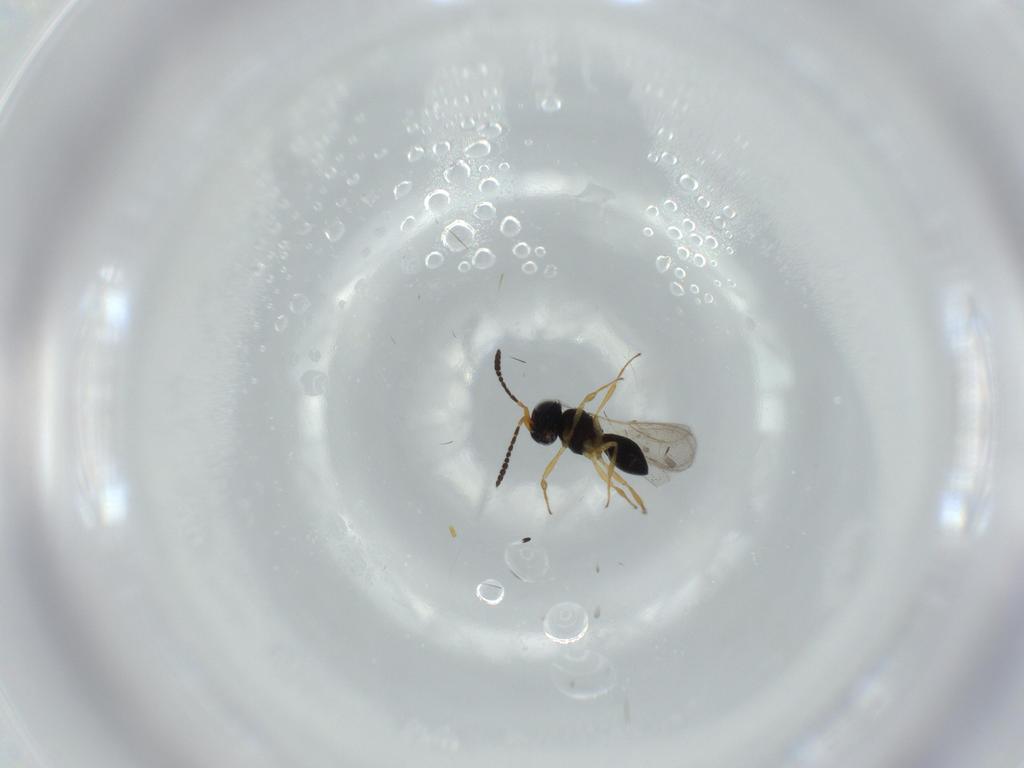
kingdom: Animalia
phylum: Arthropoda
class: Insecta
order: Hymenoptera
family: Scelionidae
